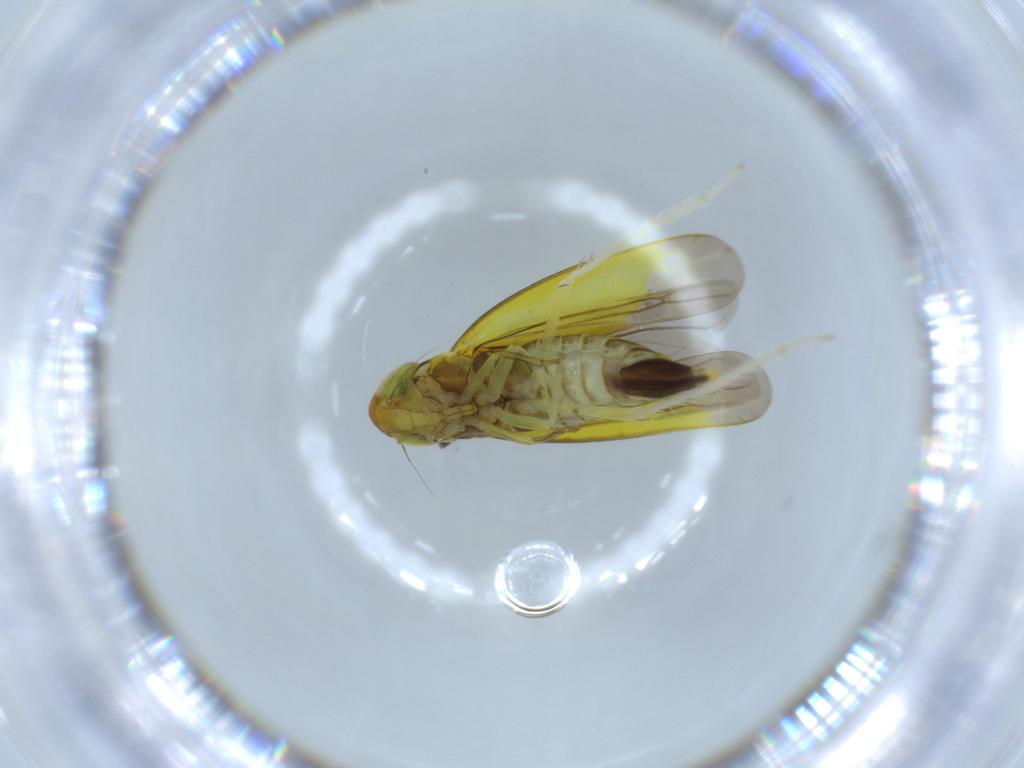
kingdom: Animalia
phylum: Arthropoda
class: Insecta
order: Hemiptera
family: Cicadellidae
